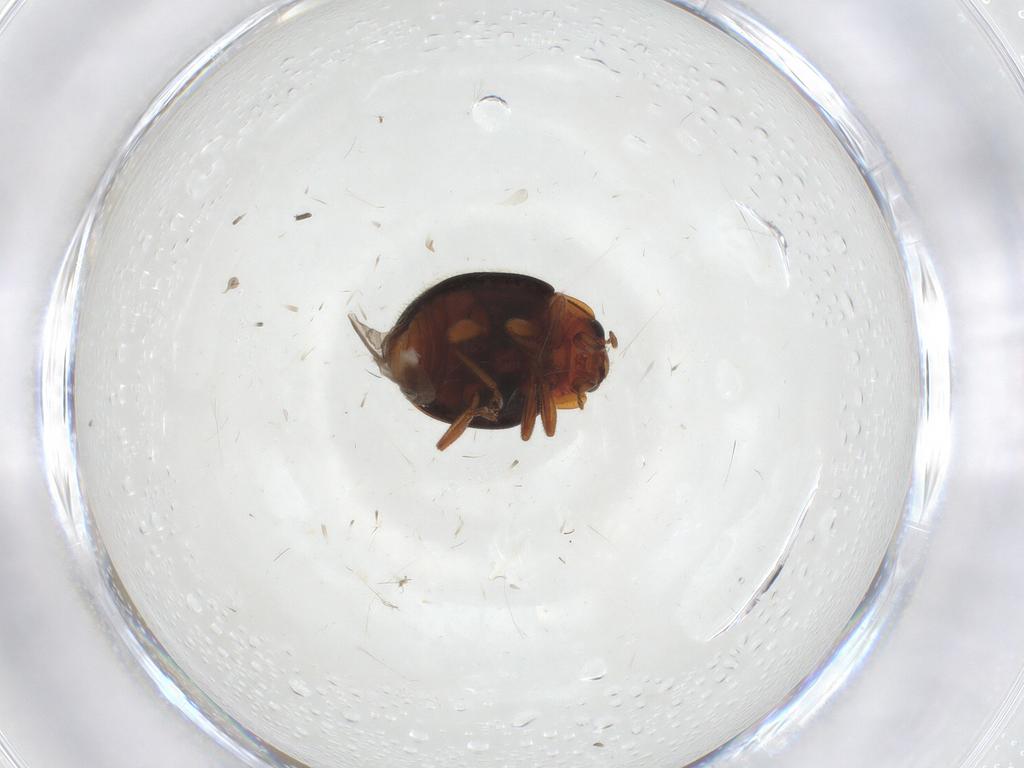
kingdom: Animalia
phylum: Arthropoda
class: Insecta
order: Coleoptera
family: Coccinellidae
